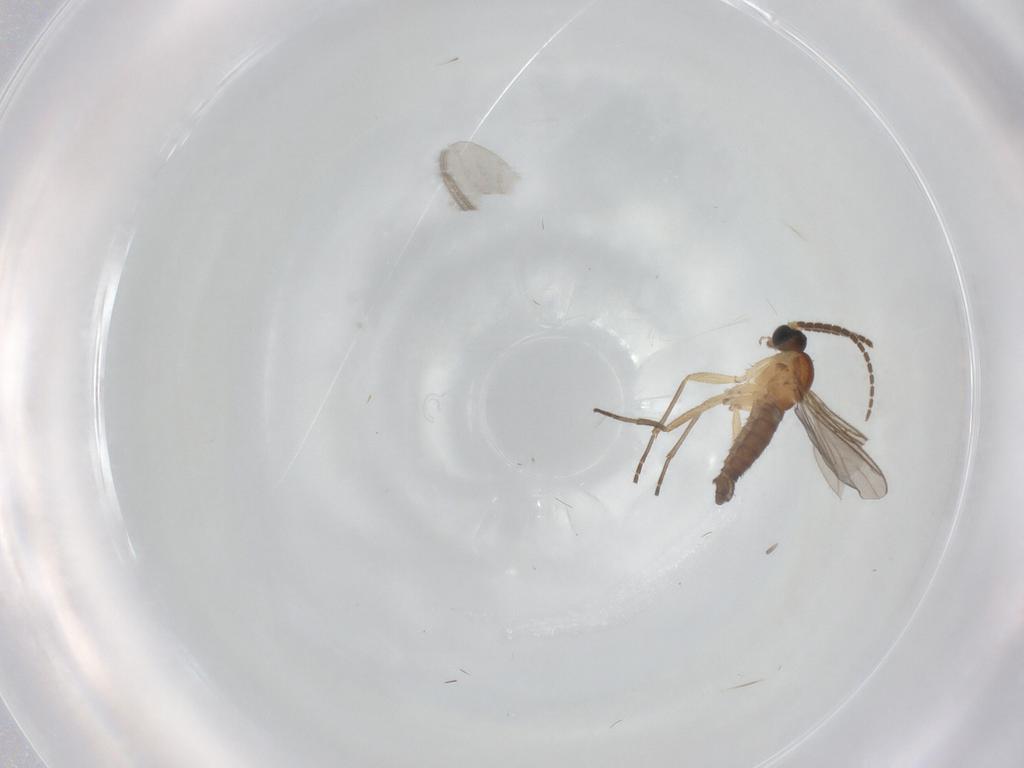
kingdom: Animalia
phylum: Arthropoda
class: Insecta
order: Diptera
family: Sciaridae
